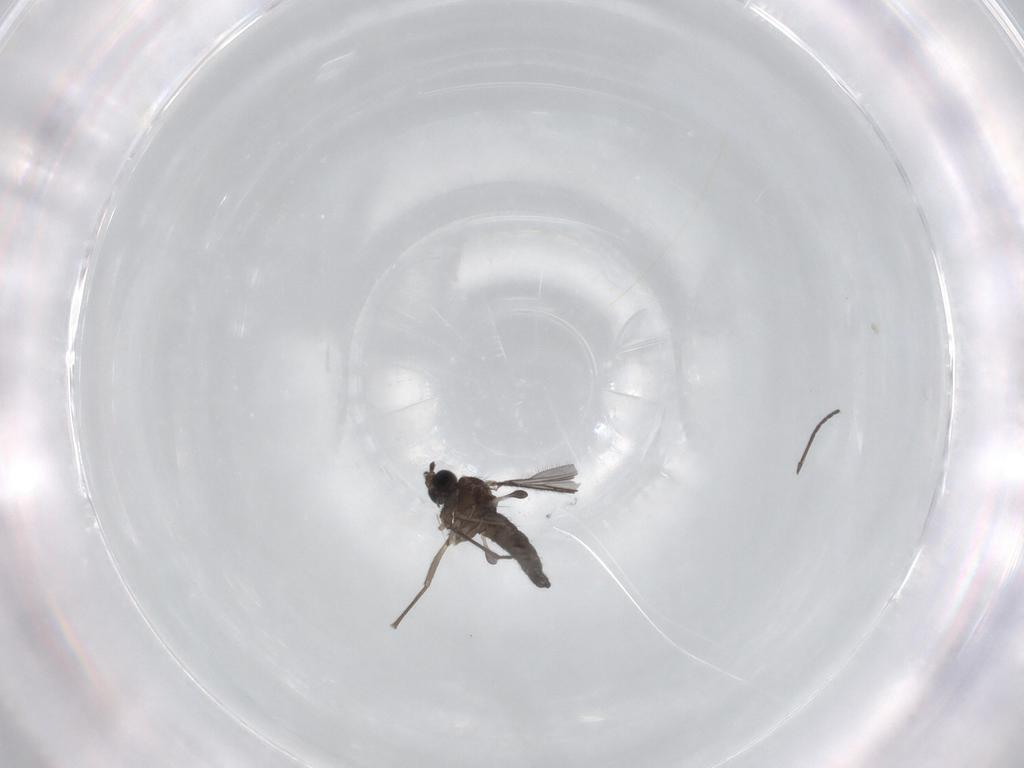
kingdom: Animalia
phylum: Arthropoda
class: Insecta
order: Diptera
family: Sciaridae
